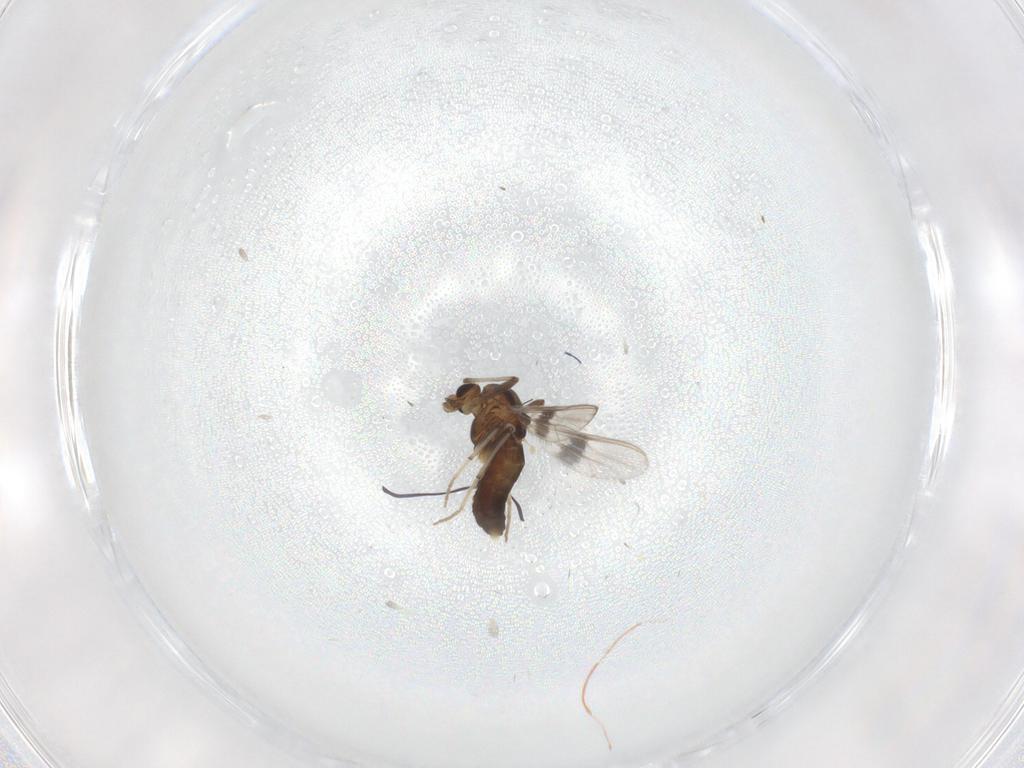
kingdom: Animalia
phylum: Arthropoda
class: Insecta
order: Diptera
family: Chironomidae
